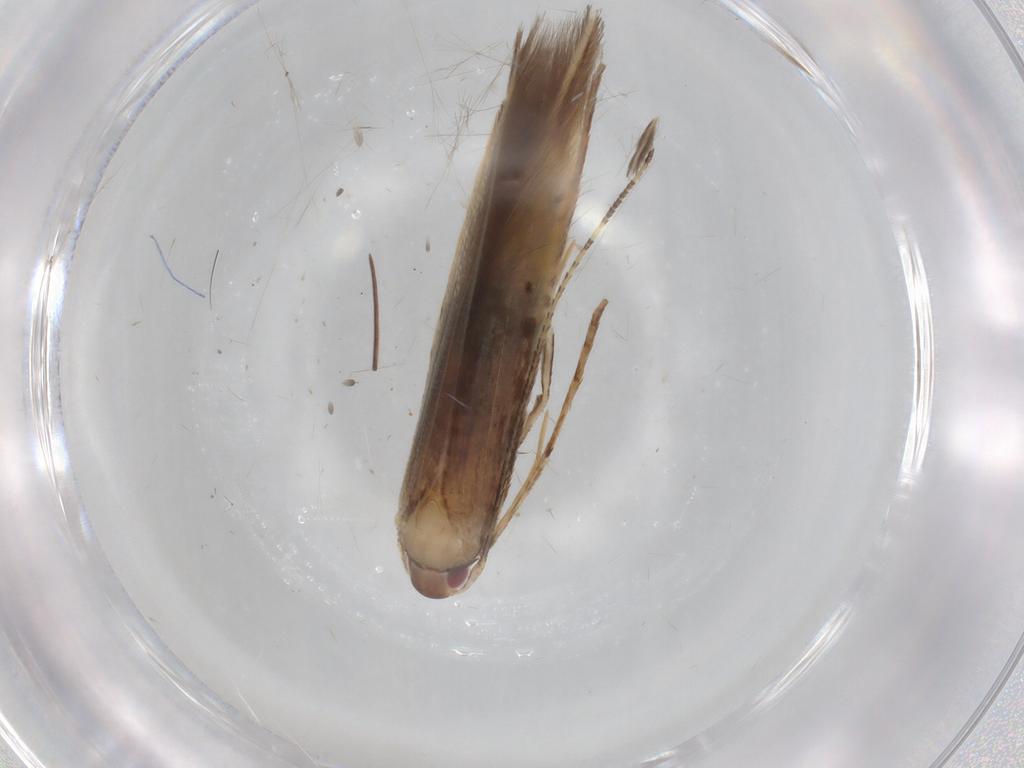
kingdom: Animalia
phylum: Arthropoda
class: Insecta
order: Lepidoptera
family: Cosmopterigidae
